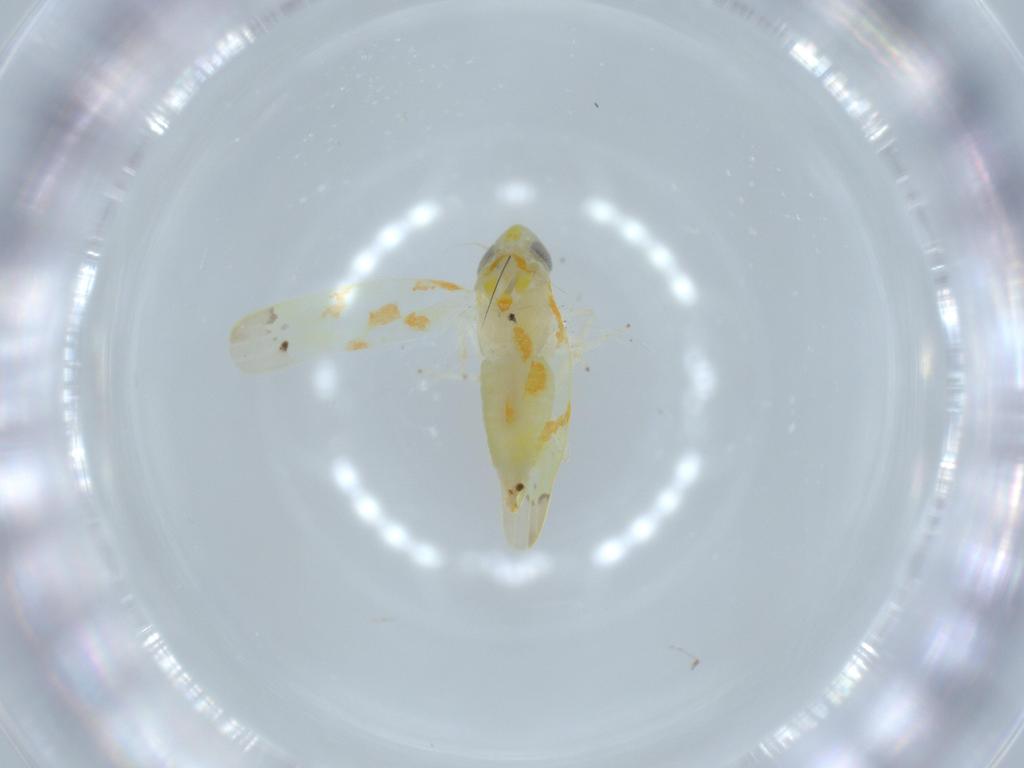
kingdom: Animalia
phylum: Arthropoda
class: Insecta
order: Hemiptera
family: Cicadellidae
